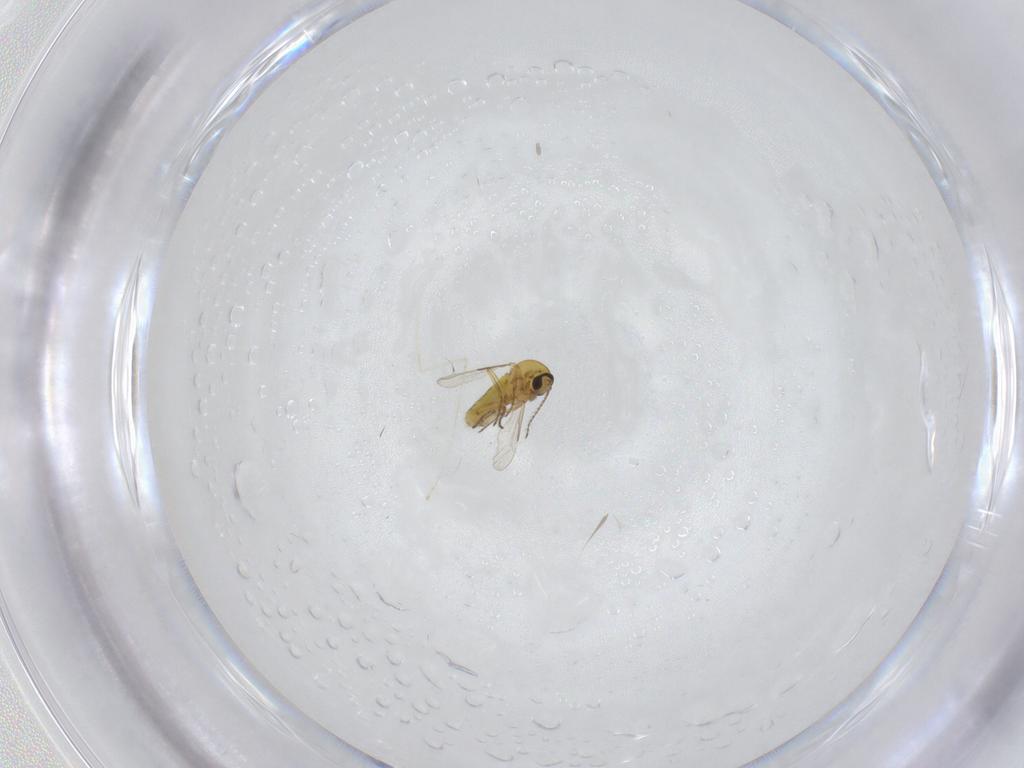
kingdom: Animalia
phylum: Arthropoda
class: Insecta
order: Diptera
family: Ceratopogonidae
